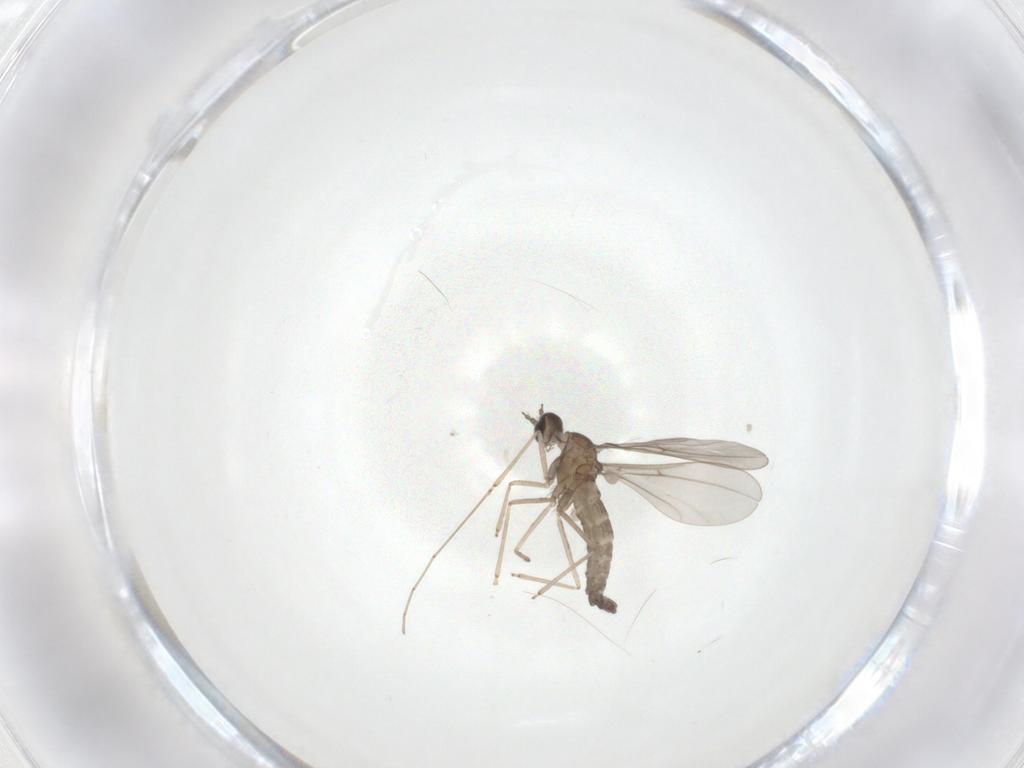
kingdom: Animalia
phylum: Arthropoda
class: Insecta
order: Diptera
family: Cecidomyiidae
